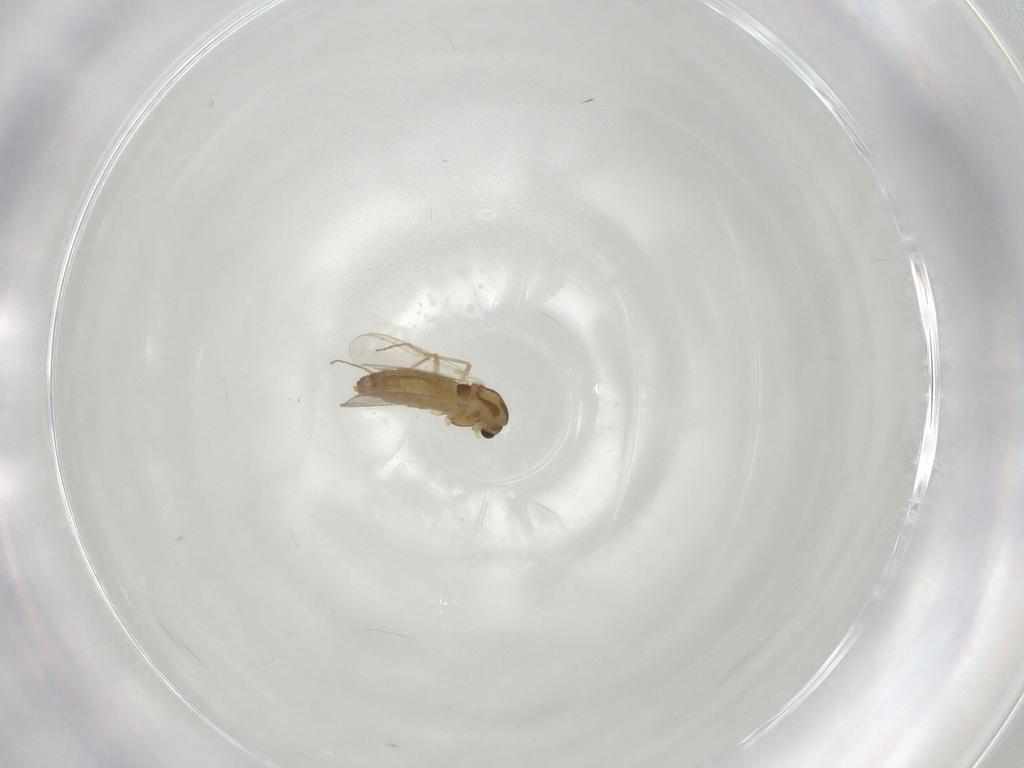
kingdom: Animalia
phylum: Arthropoda
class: Insecta
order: Diptera
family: Chironomidae
